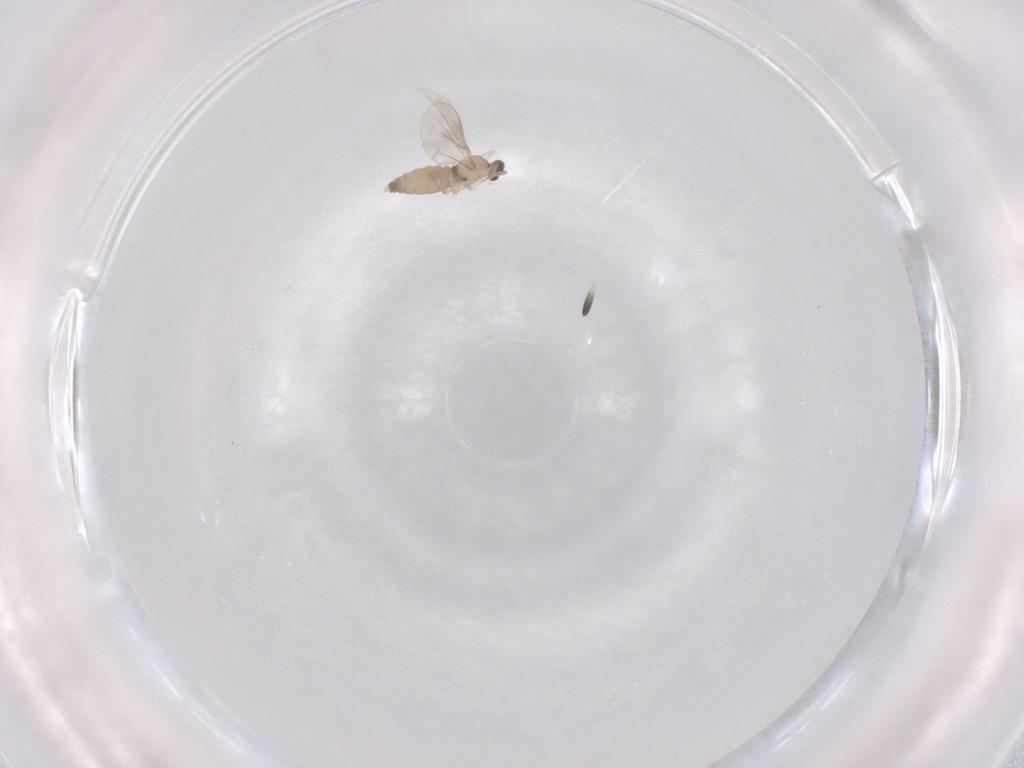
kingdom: Animalia
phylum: Arthropoda
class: Insecta
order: Diptera
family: Cecidomyiidae
